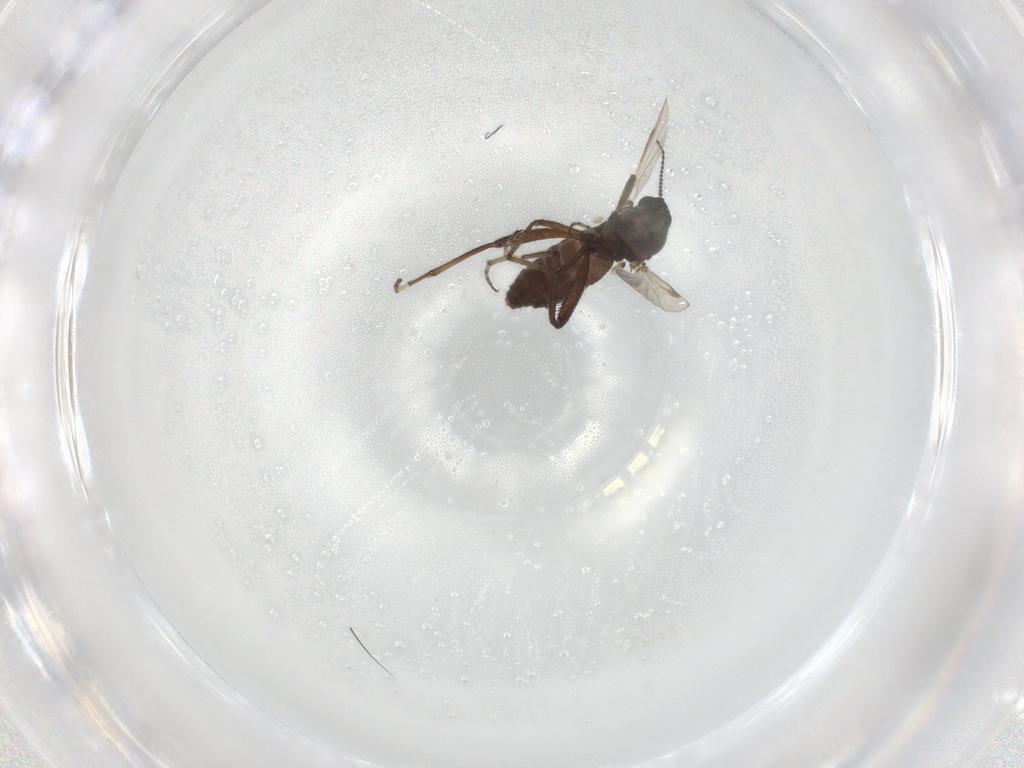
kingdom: Animalia
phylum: Arthropoda
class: Insecta
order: Diptera
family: Ceratopogonidae
